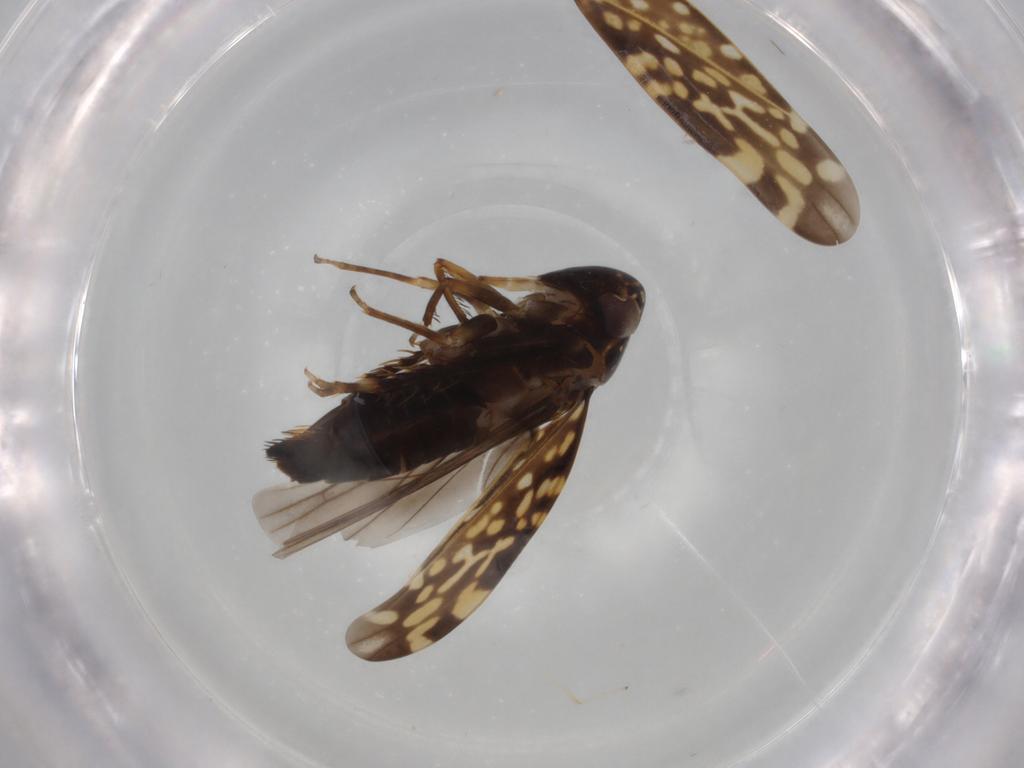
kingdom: Animalia
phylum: Arthropoda
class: Insecta
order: Hemiptera
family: Cicadellidae
